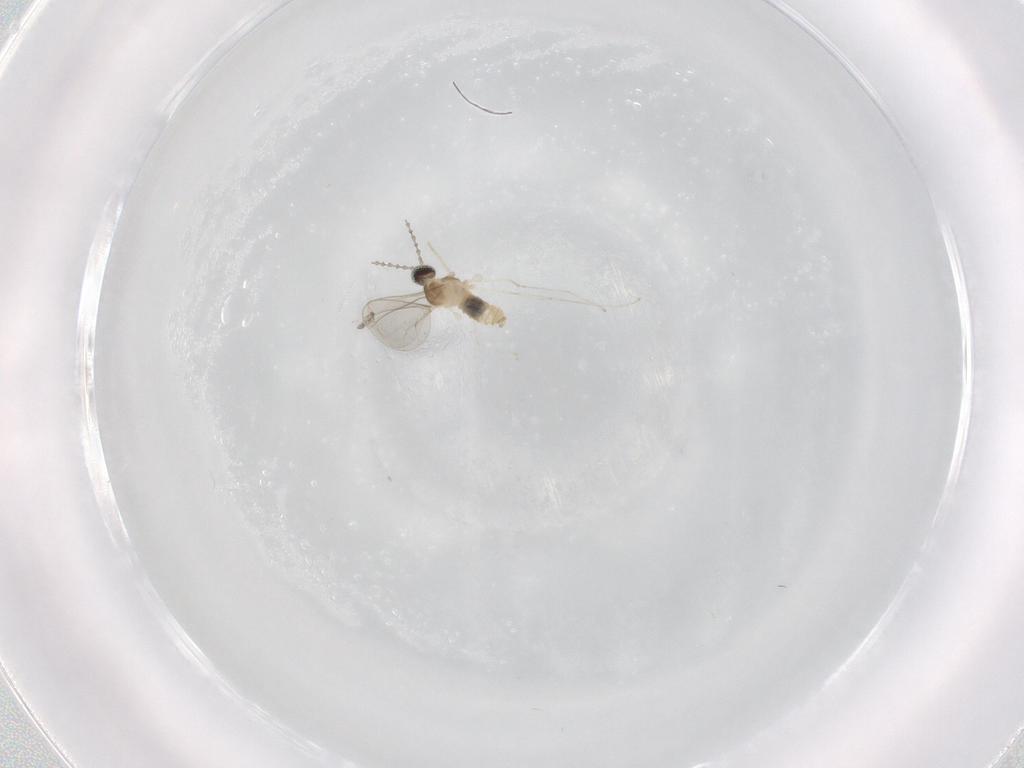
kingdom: Animalia
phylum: Arthropoda
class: Insecta
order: Diptera
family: Cecidomyiidae
